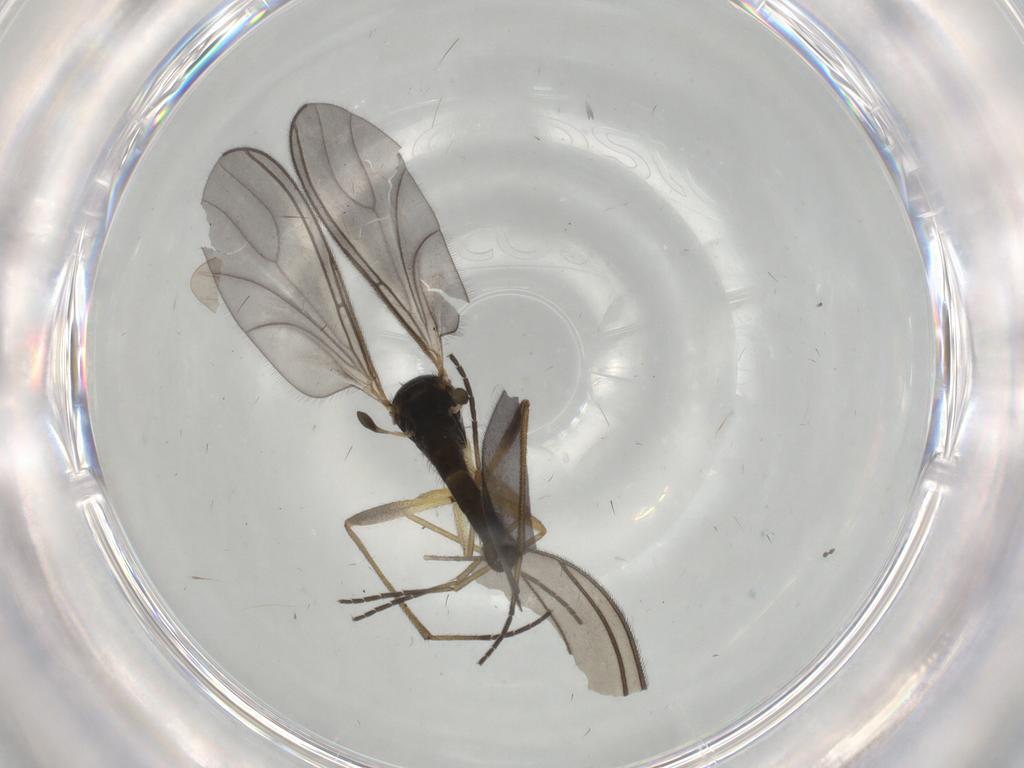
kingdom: Animalia
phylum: Arthropoda
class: Insecta
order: Diptera
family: Sciaridae
